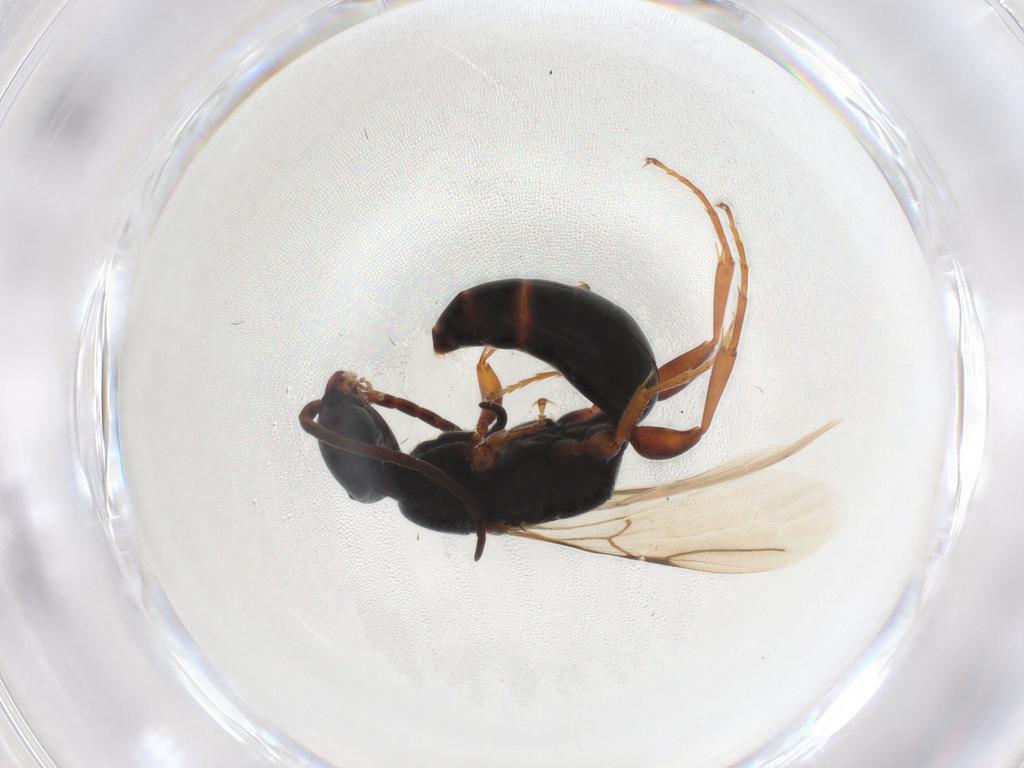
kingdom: Animalia
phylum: Arthropoda
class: Insecta
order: Hymenoptera
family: Bethylidae
